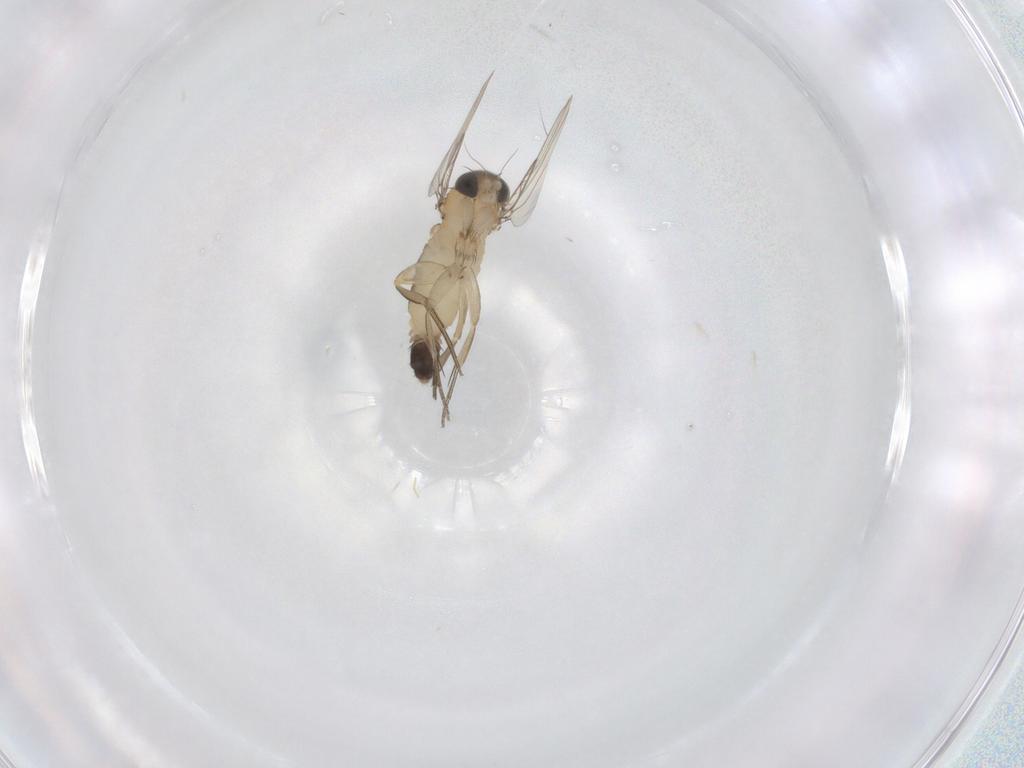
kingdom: Animalia
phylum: Arthropoda
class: Insecta
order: Diptera
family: Phoridae
